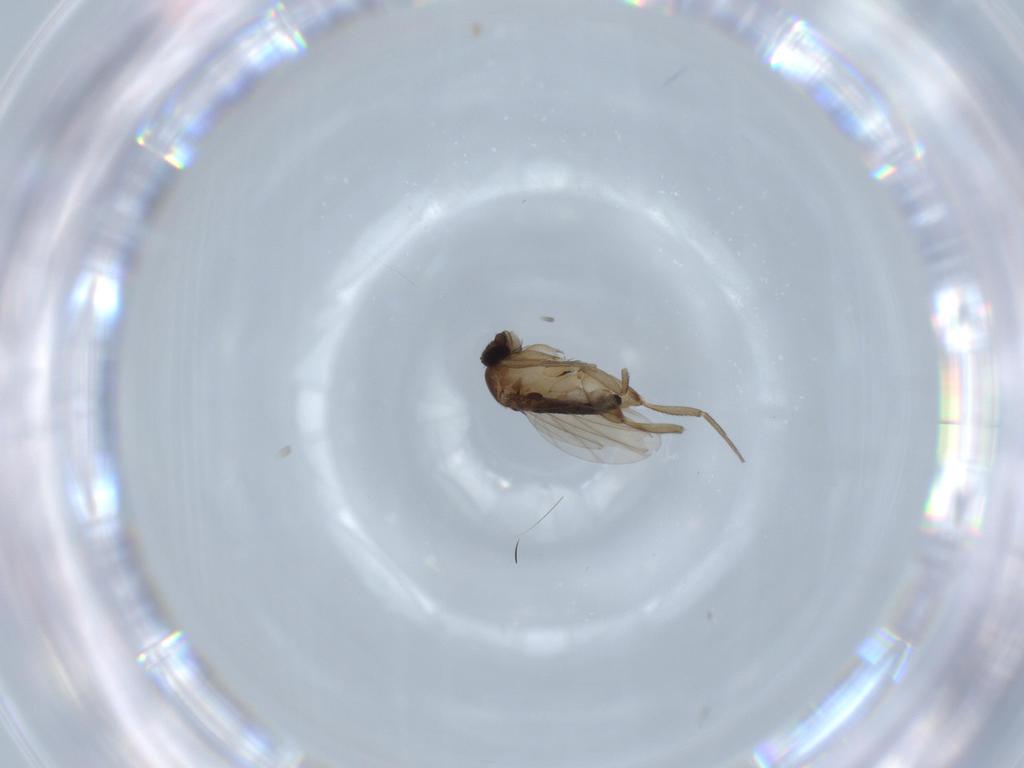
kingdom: Animalia
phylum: Arthropoda
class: Insecta
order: Diptera
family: Phoridae
